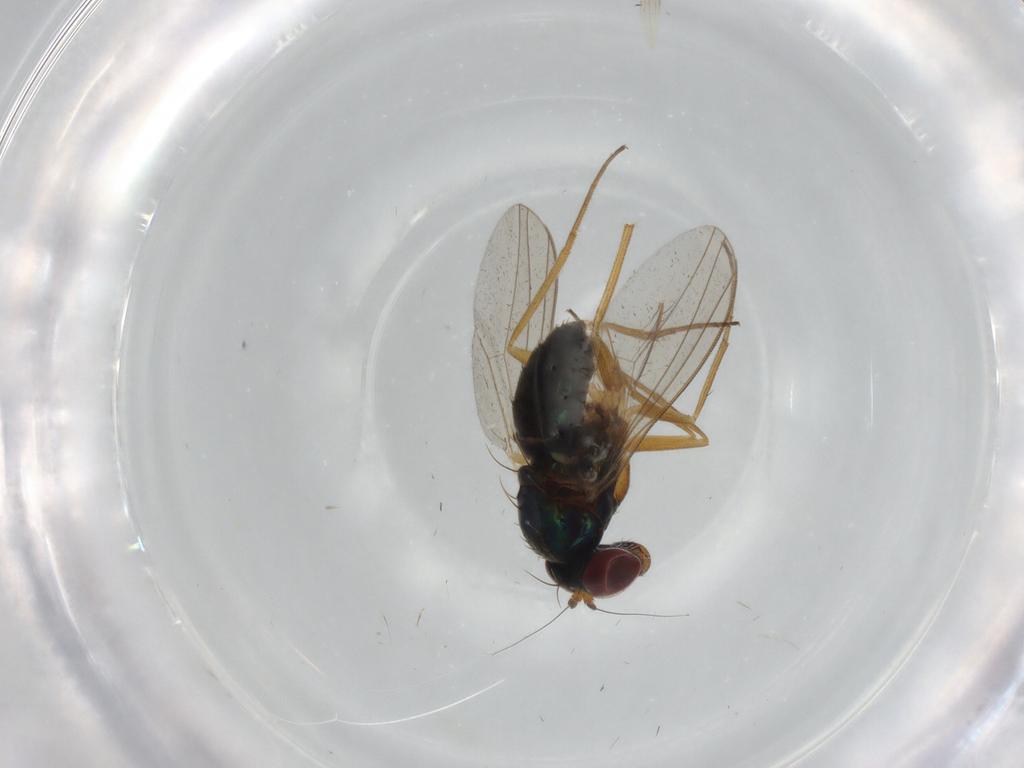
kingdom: Animalia
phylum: Arthropoda
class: Insecta
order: Diptera
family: Dolichopodidae
